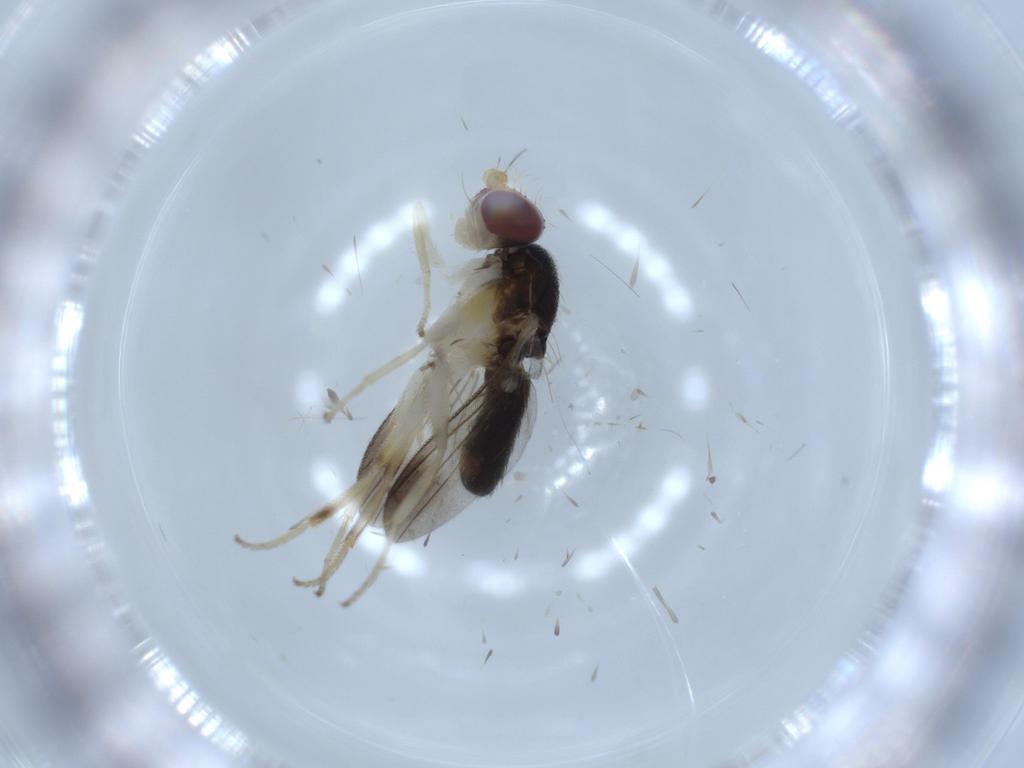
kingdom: Animalia
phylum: Arthropoda
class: Insecta
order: Diptera
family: Clusiidae
